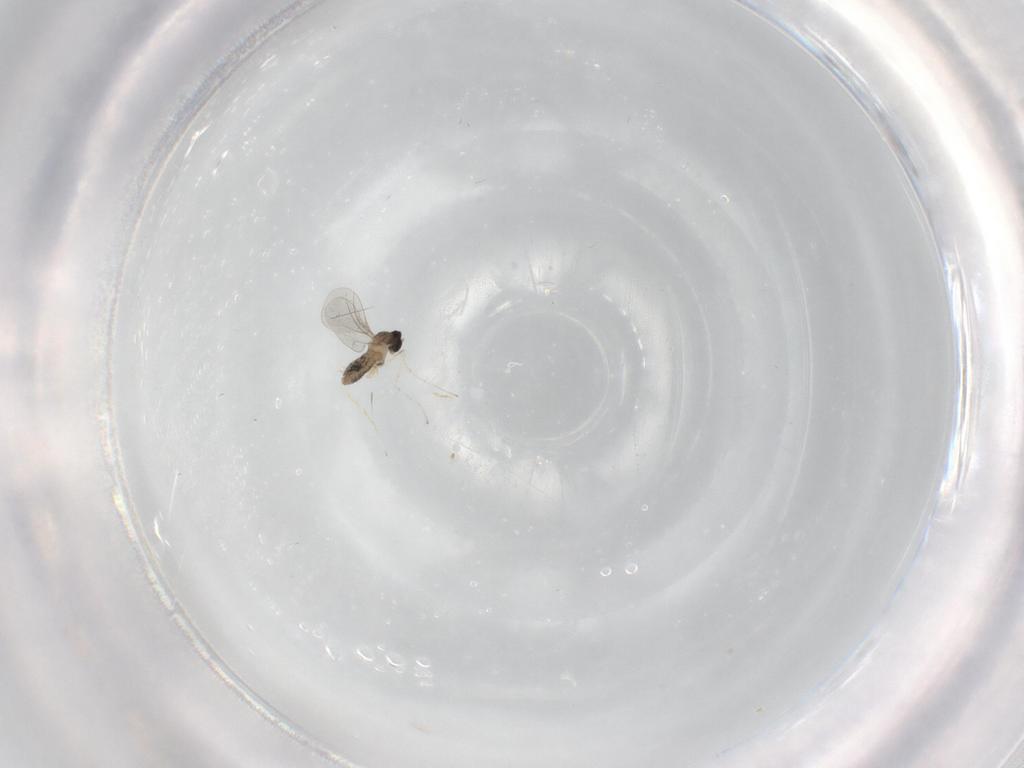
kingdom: Animalia
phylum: Arthropoda
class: Insecta
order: Diptera
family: Cecidomyiidae
